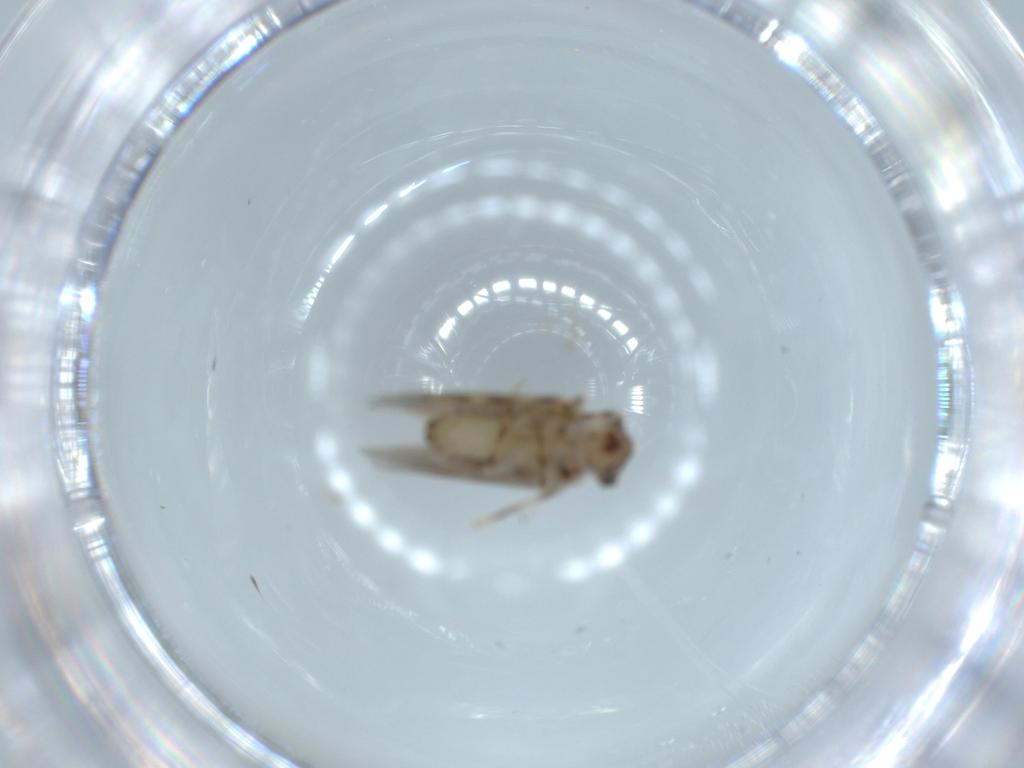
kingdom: Animalia
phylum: Arthropoda
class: Insecta
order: Psocodea
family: Lepidopsocidae
